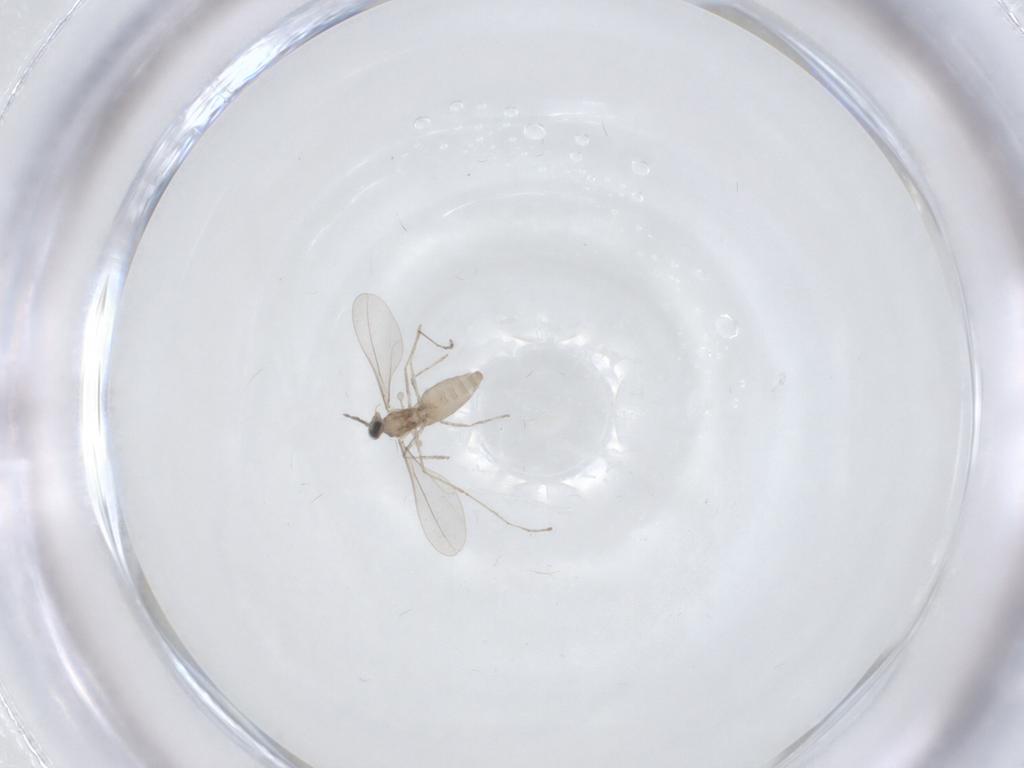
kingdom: Animalia
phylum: Arthropoda
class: Insecta
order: Diptera
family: Cecidomyiidae
